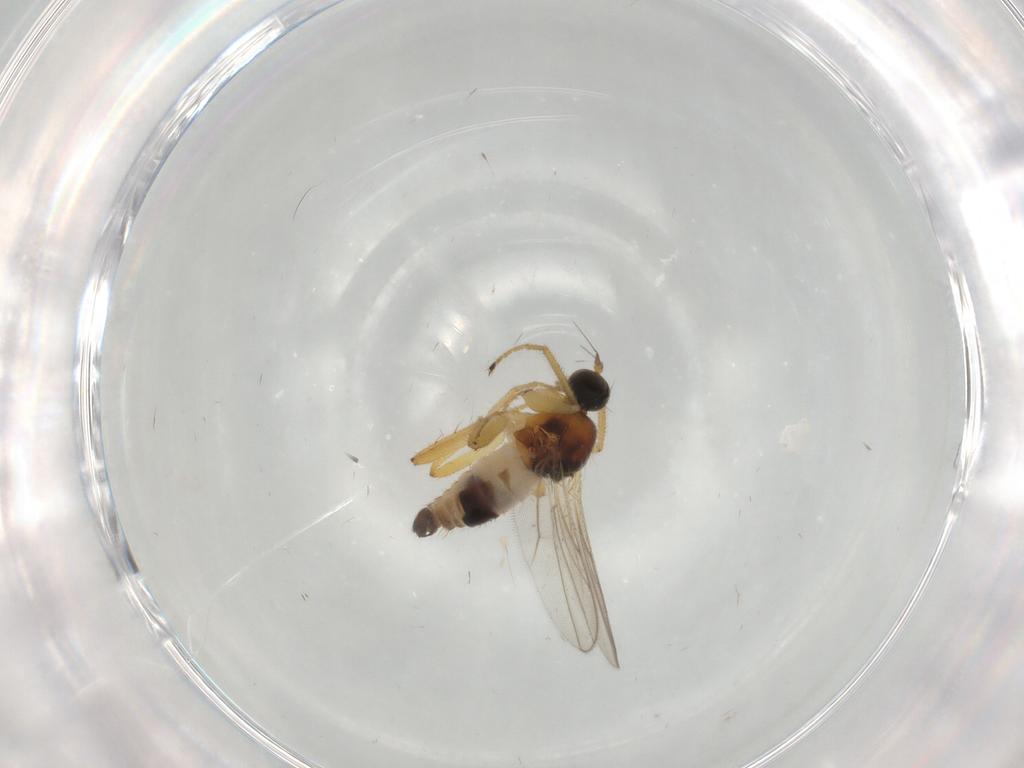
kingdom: Animalia
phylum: Arthropoda
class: Insecta
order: Diptera
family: Hybotidae
